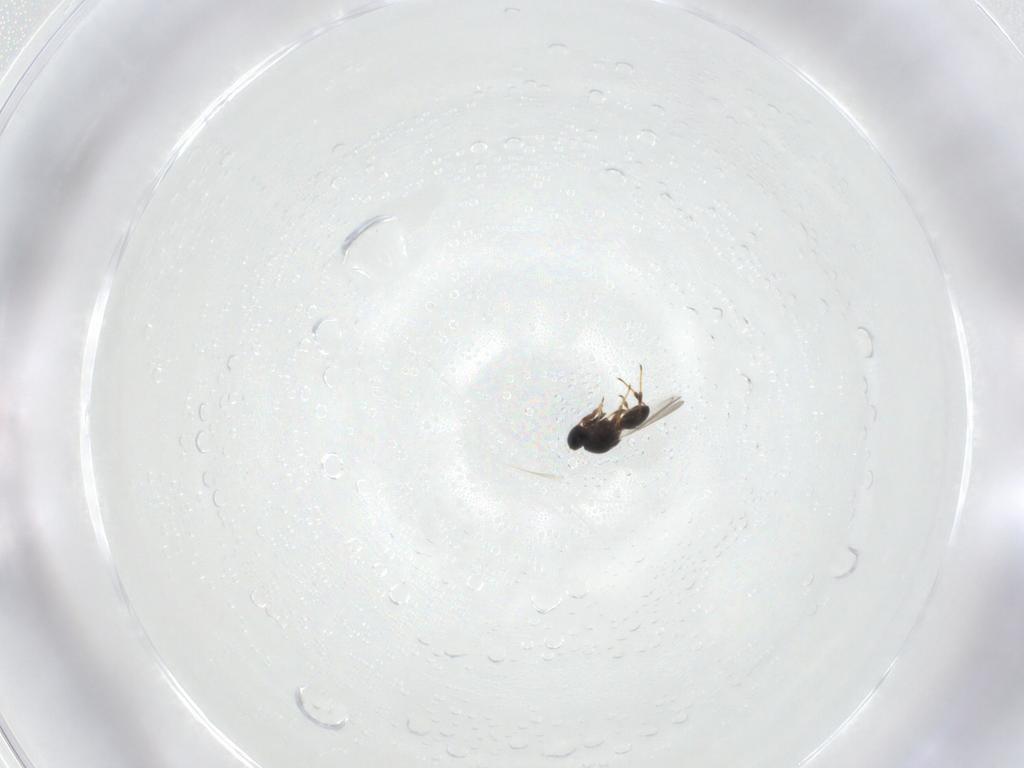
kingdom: Animalia
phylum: Arthropoda
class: Insecta
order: Hymenoptera
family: Platygastridae
